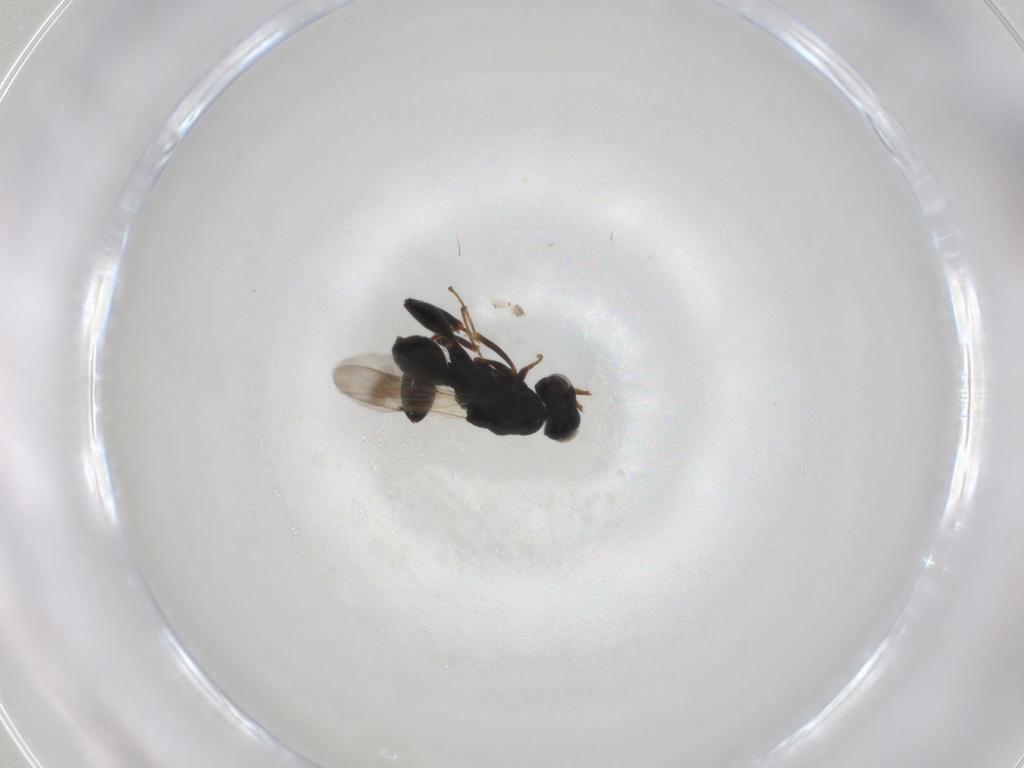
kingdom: Animalia
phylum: Arthropoda
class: Insecta
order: Hymenoptera
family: Chalcididae
